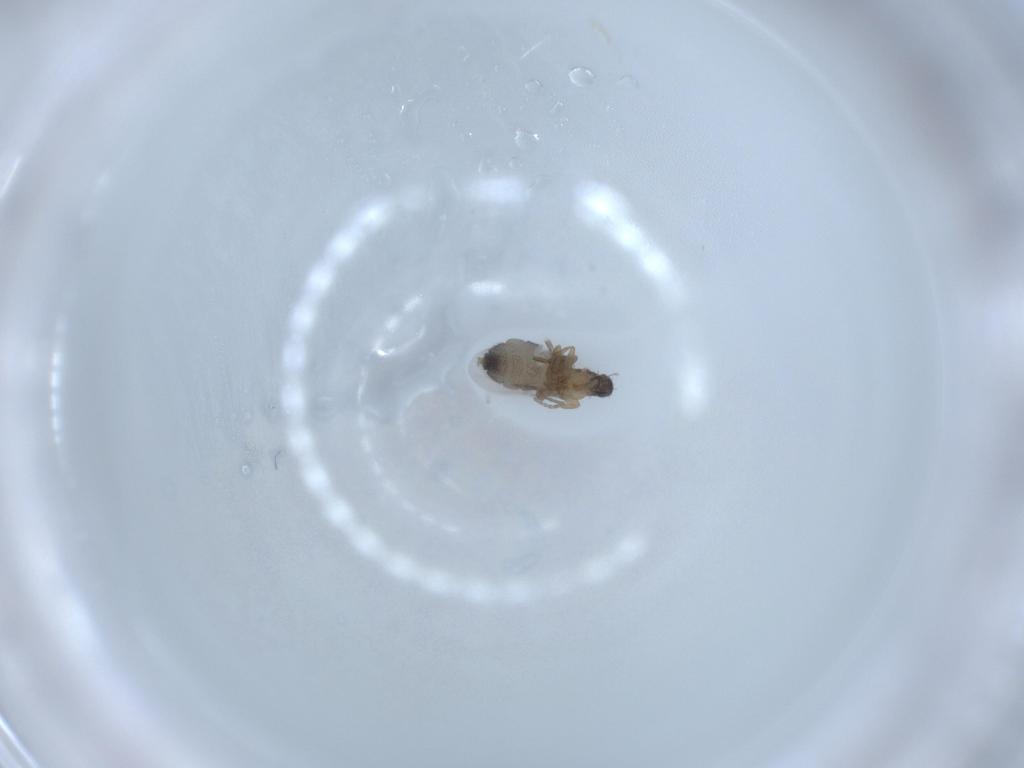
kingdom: Animalia
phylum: Arthropoda
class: Insecta
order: Diptera
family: Phoridae
